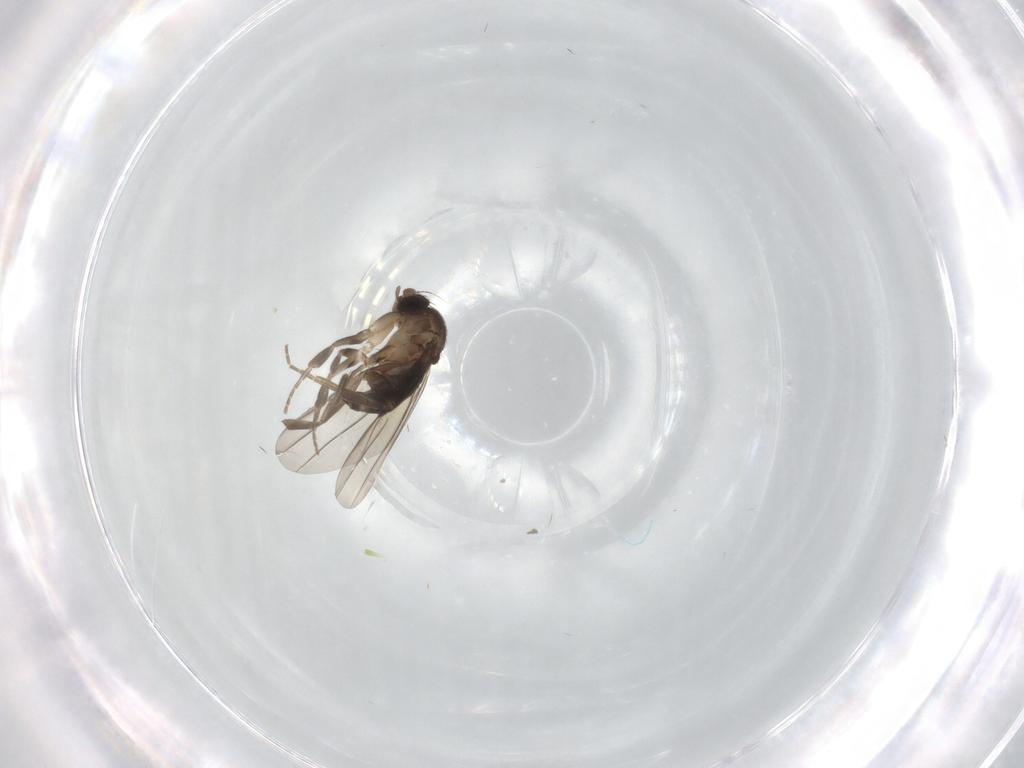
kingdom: Animalia
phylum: Arthropoda
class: Insecta
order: Diptera
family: Phoridae
